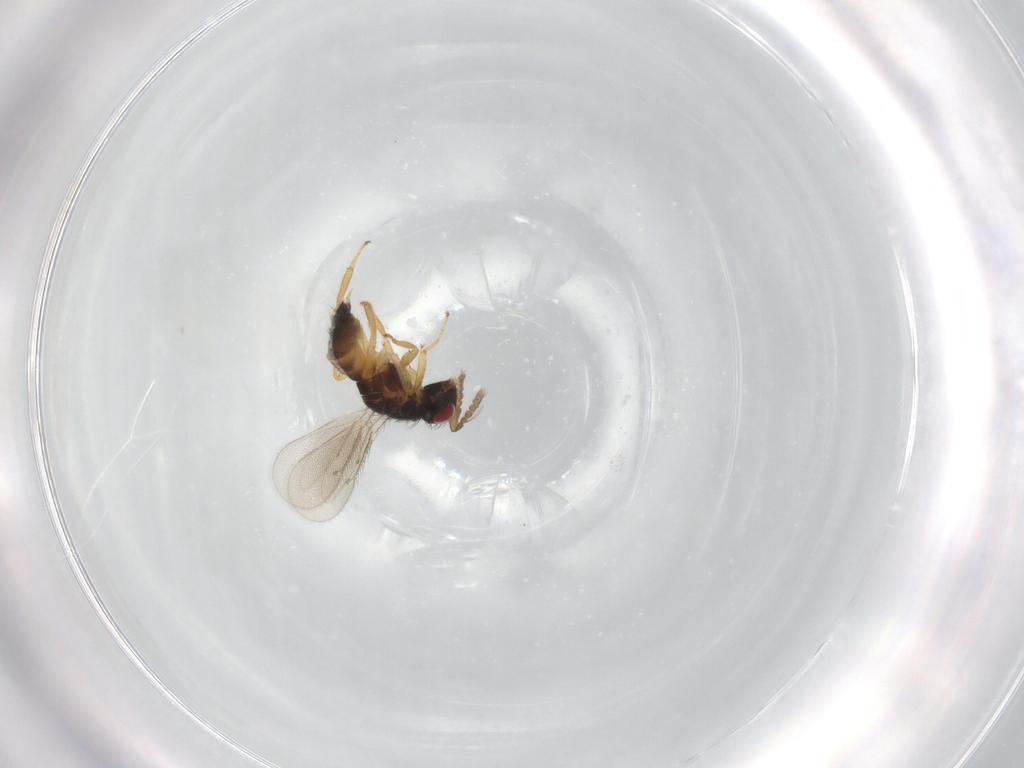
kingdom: Animalia
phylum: Arthropoda
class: Insecta
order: Hymenoptera
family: Eulophidae
